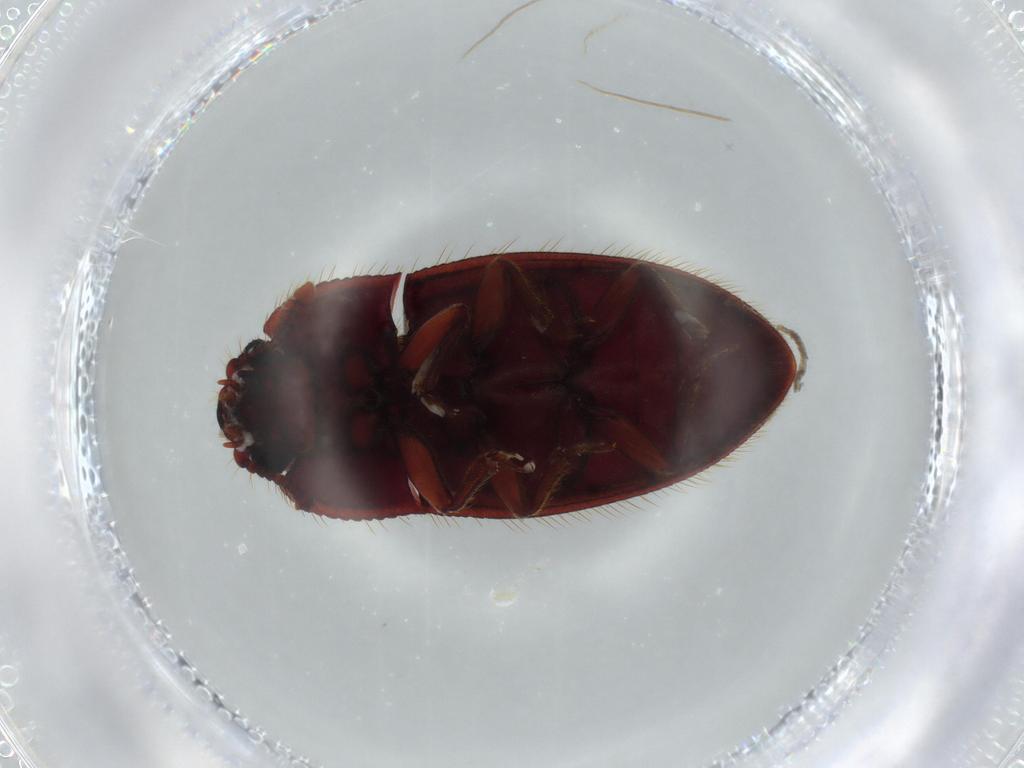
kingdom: Animalia
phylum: Arthropoda
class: Insecta
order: Coleoptera
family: Biphyllidae
